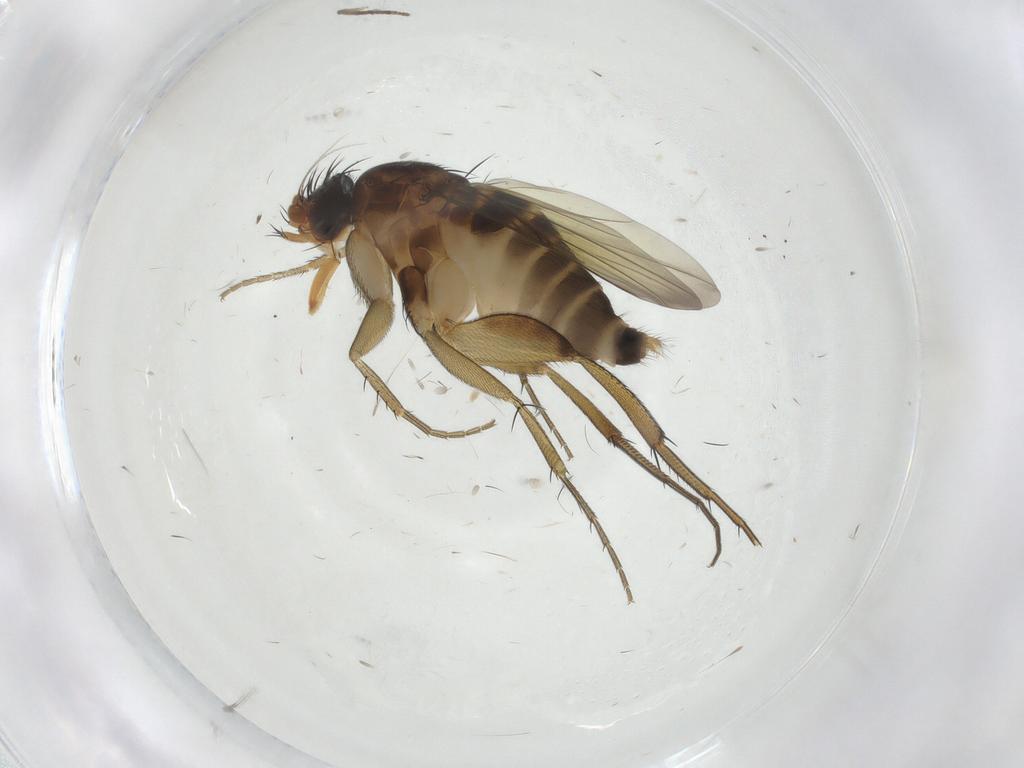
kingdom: Animalia
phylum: Arthropoda
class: Insecta
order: Diptera
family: Phoridae
